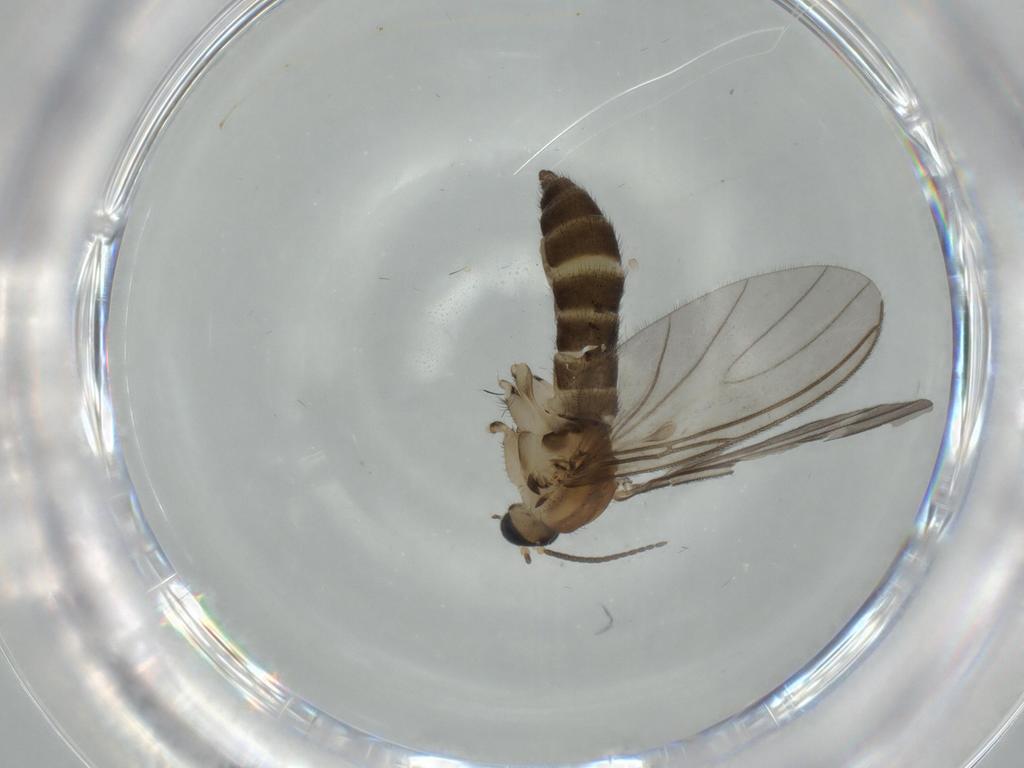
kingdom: Animalia
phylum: Arthropoda
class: Insecta
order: Diptera
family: Sciaridae
